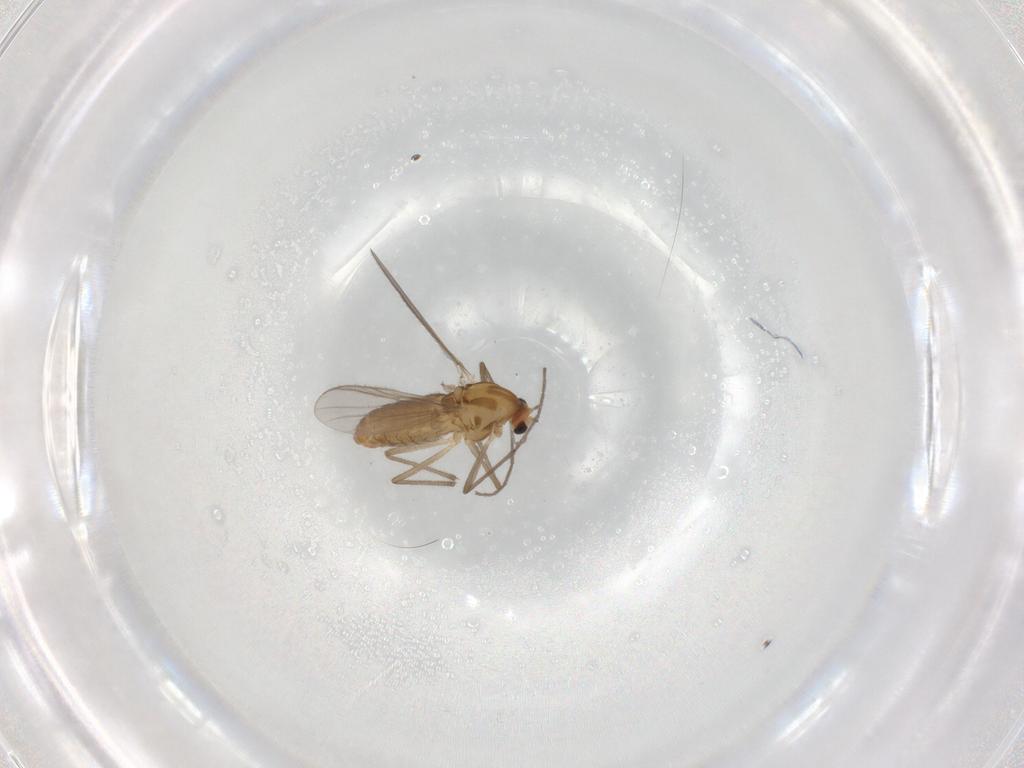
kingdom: Animalia
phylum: Arthropoda
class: Insecta
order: Diptera
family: Chironomidae
